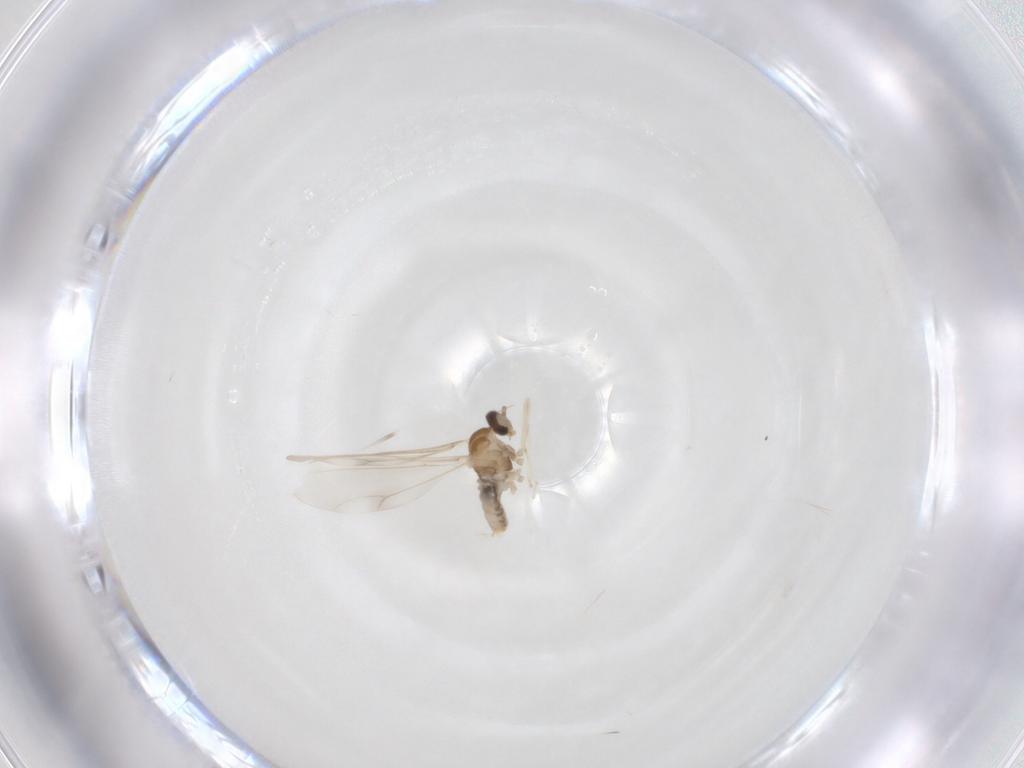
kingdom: Animalia
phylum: Arthropoda
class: Insecta
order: Diptera
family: Cecidomyiidae
